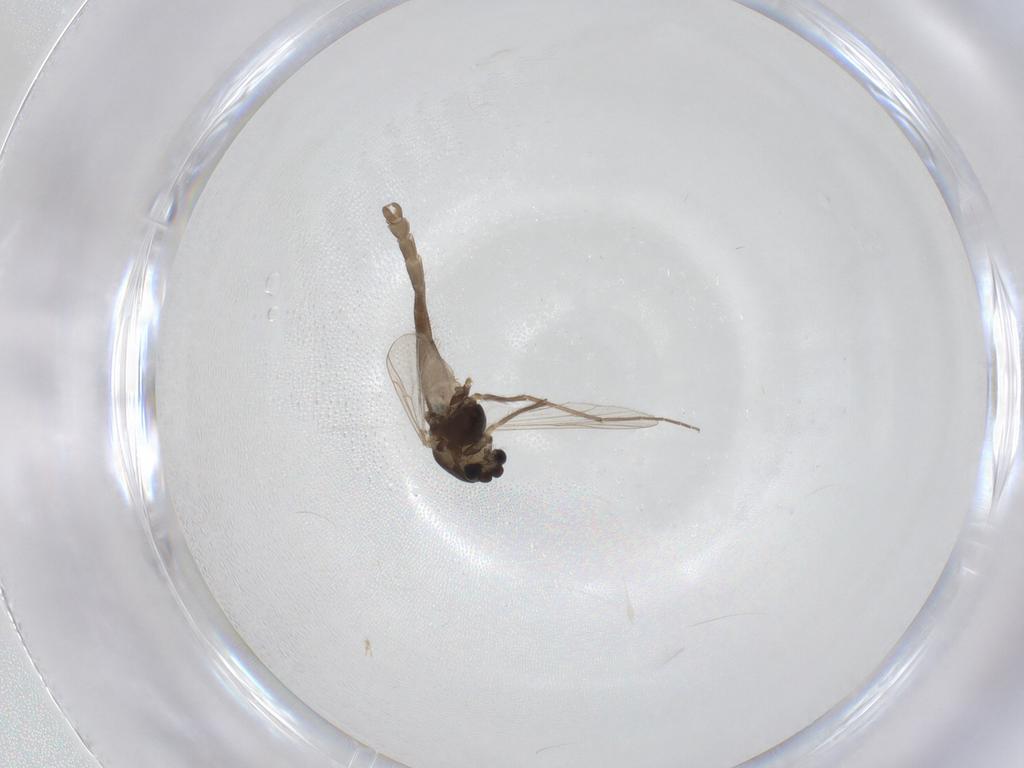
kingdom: Animalia
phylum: Arthropoda
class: Insecta
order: Diptera
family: Chironomidae
